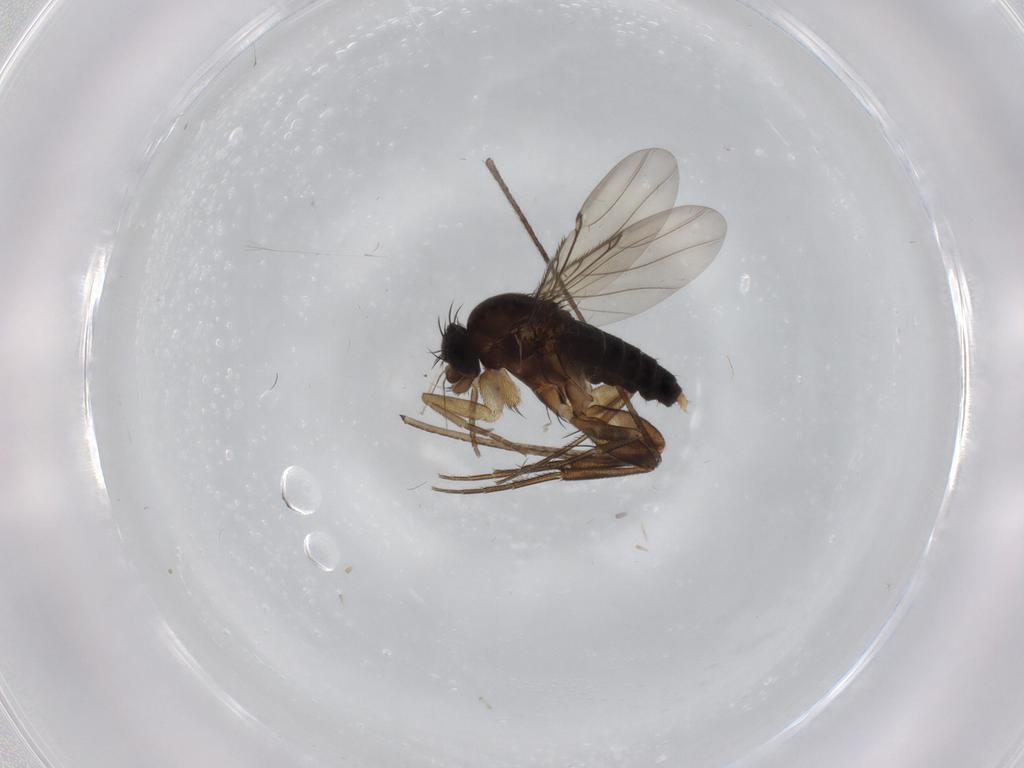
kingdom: Animalia
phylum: Arthropoda
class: Insecta
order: Diptera
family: Phoridae
